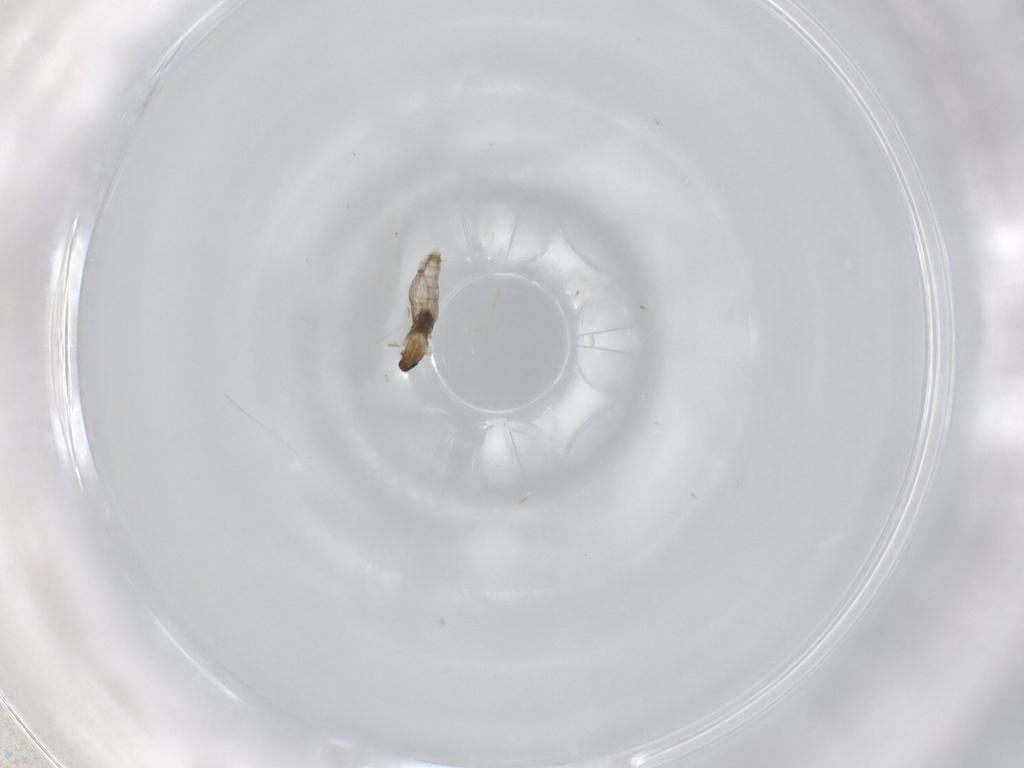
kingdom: Animalia
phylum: Arthropoda
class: Insecta
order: Diptera
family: Cecidomyiidae
